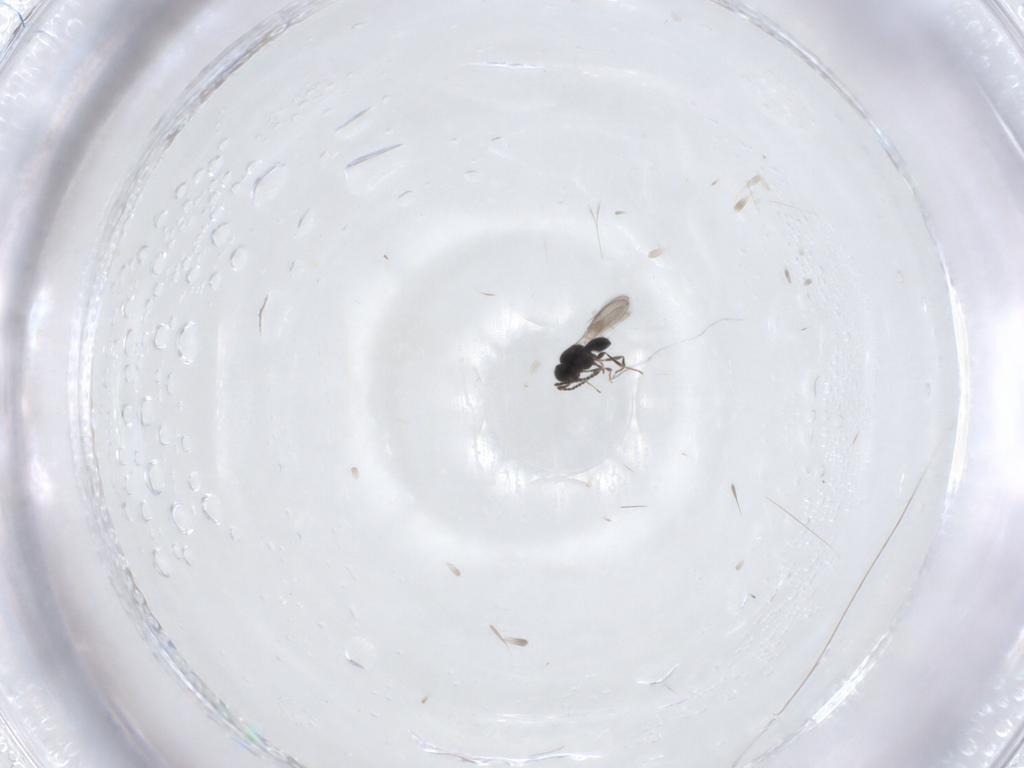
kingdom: Animalia
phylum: Arthropoda
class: Insecta
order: Hymenoptera
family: Scelionidae
